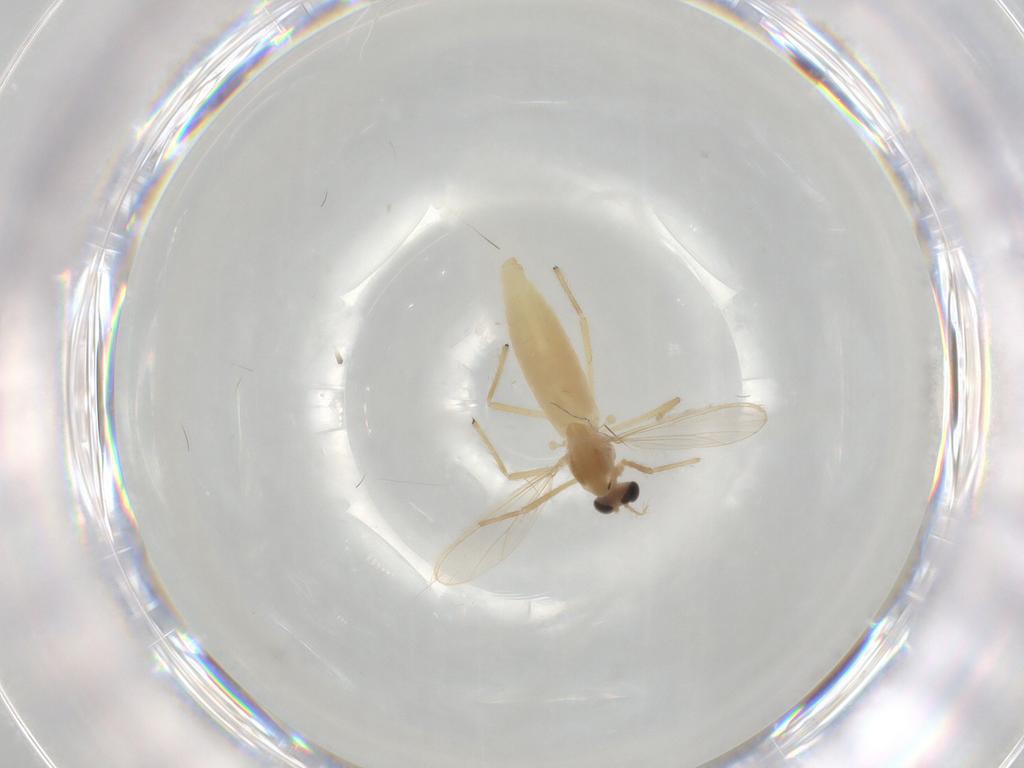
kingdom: Animalia
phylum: Arthropoda
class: Insecta
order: Diptera
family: Chironomidae
